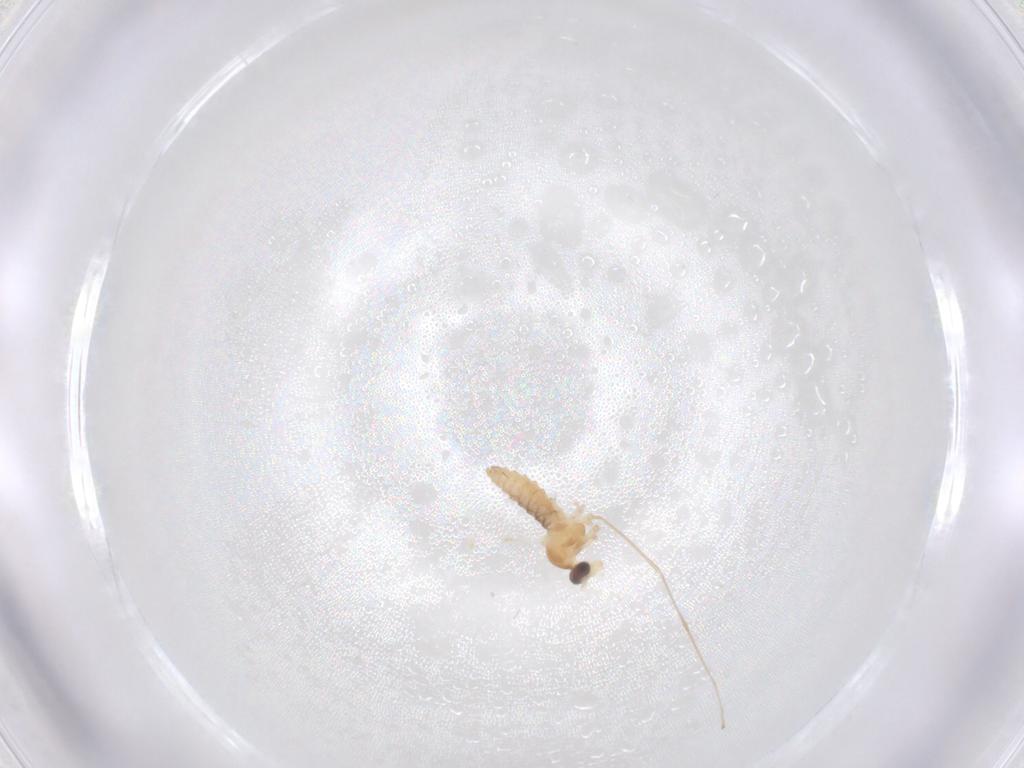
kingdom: Animalia
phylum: Arthropoda
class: Insecta
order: Diptera
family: Cecidomyiidae
